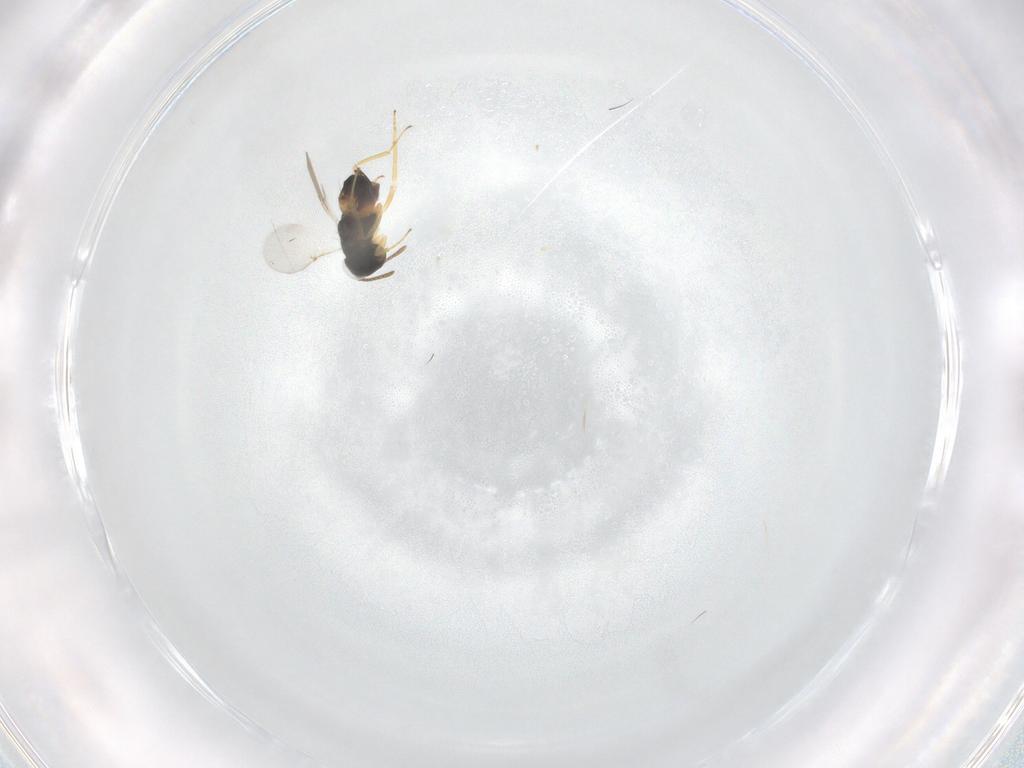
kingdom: Animalia
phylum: Arthropoda
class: Insecta
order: Hymenoptera
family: Encyrtidae
